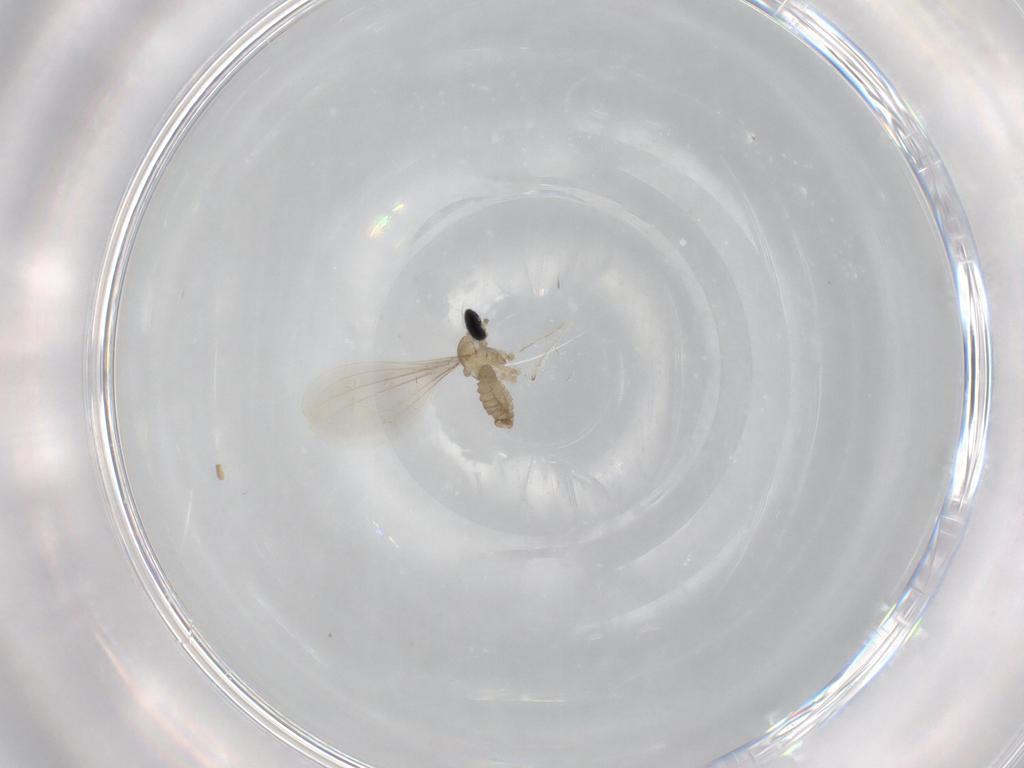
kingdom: Animalia
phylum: Arthropoda
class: Insecta
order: Diptera
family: Cecidomyiidae
